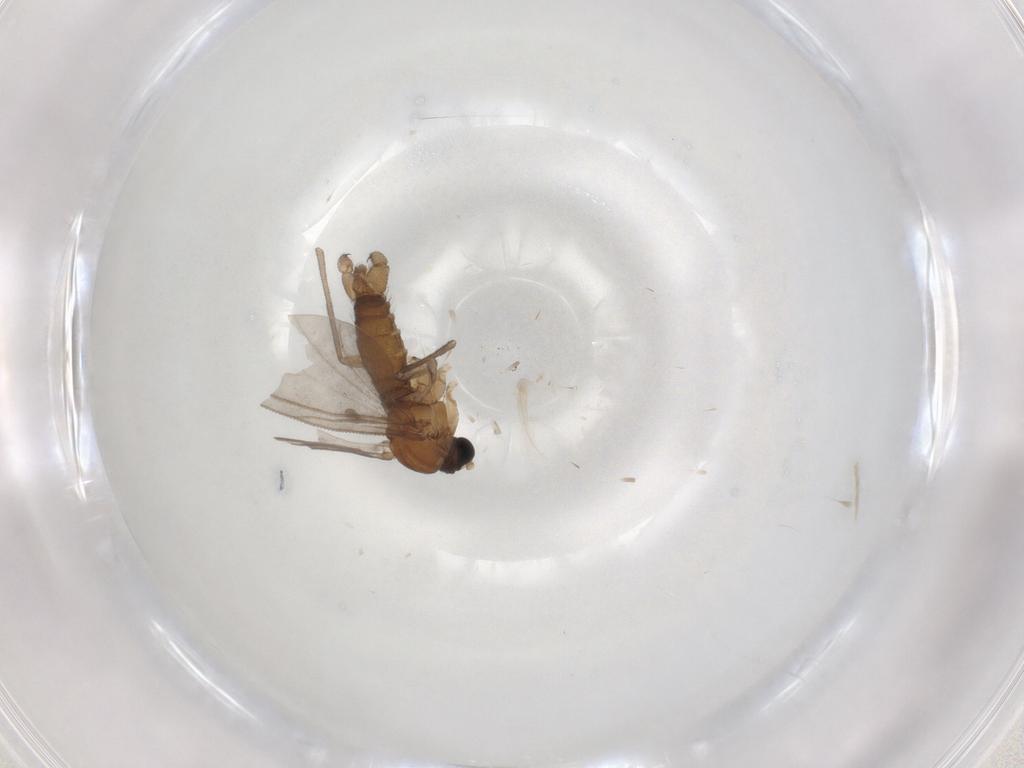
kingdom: Animalia
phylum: Arthropoda
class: Insecta
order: Diptera
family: Sciaridae
